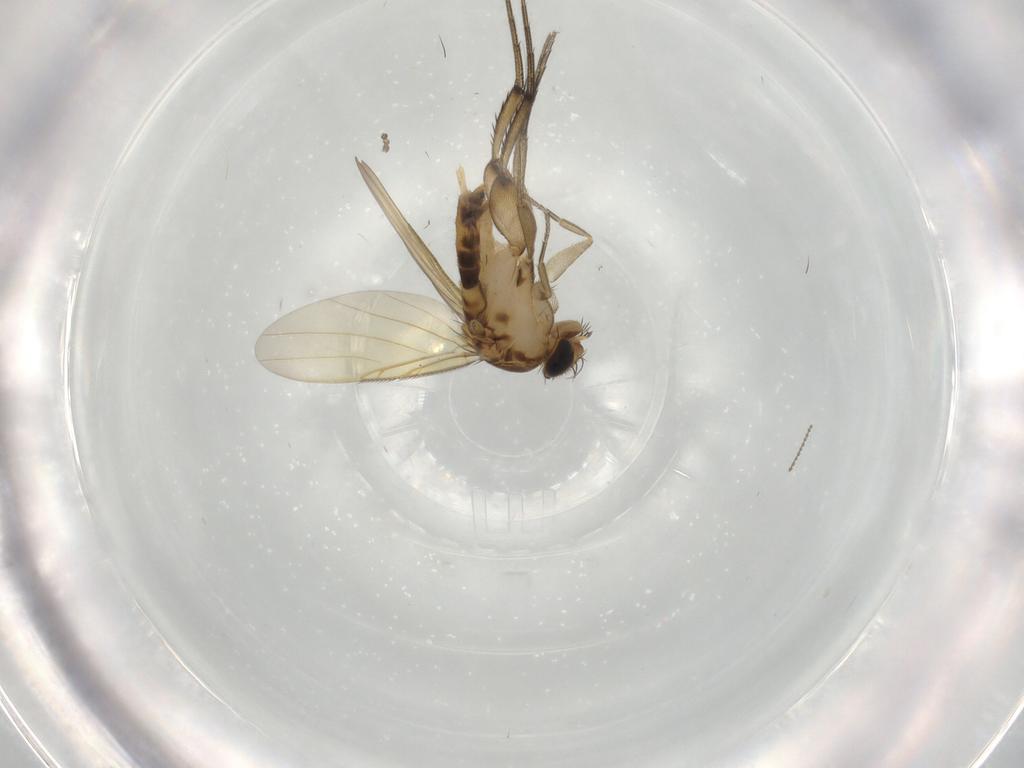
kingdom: Animalia
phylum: Arthropoda
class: Insecta
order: Diptera
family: Phoridae
